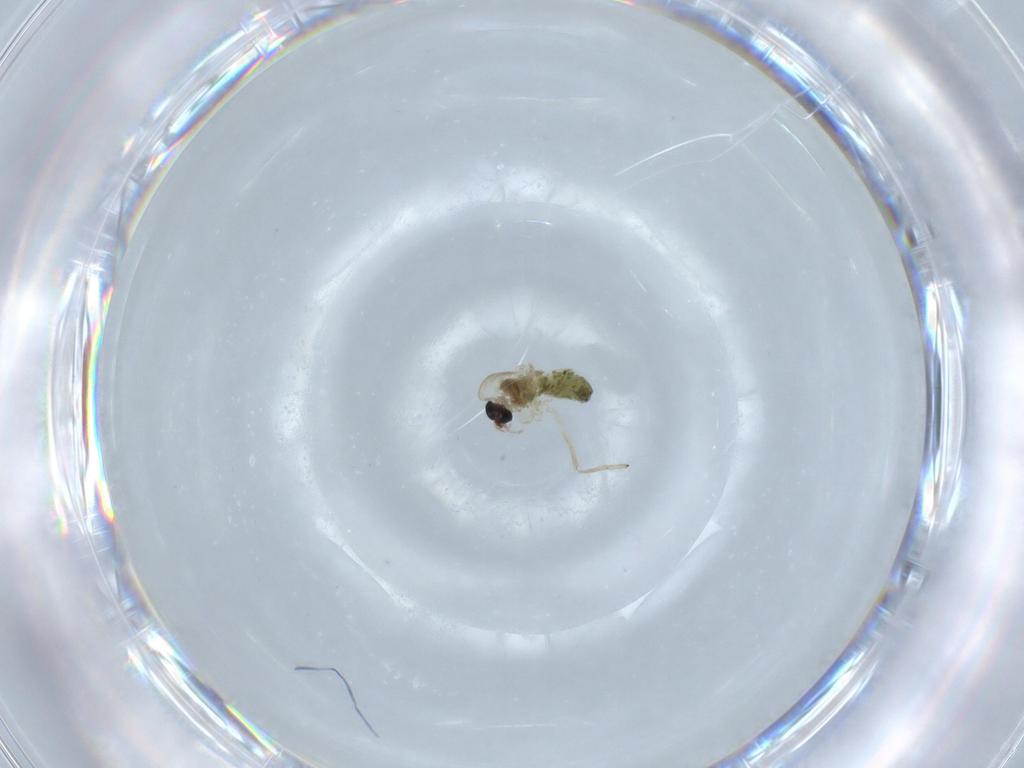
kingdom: Animalia
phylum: Arthropoda
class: Insecta
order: Diptera
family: Chironomidae
